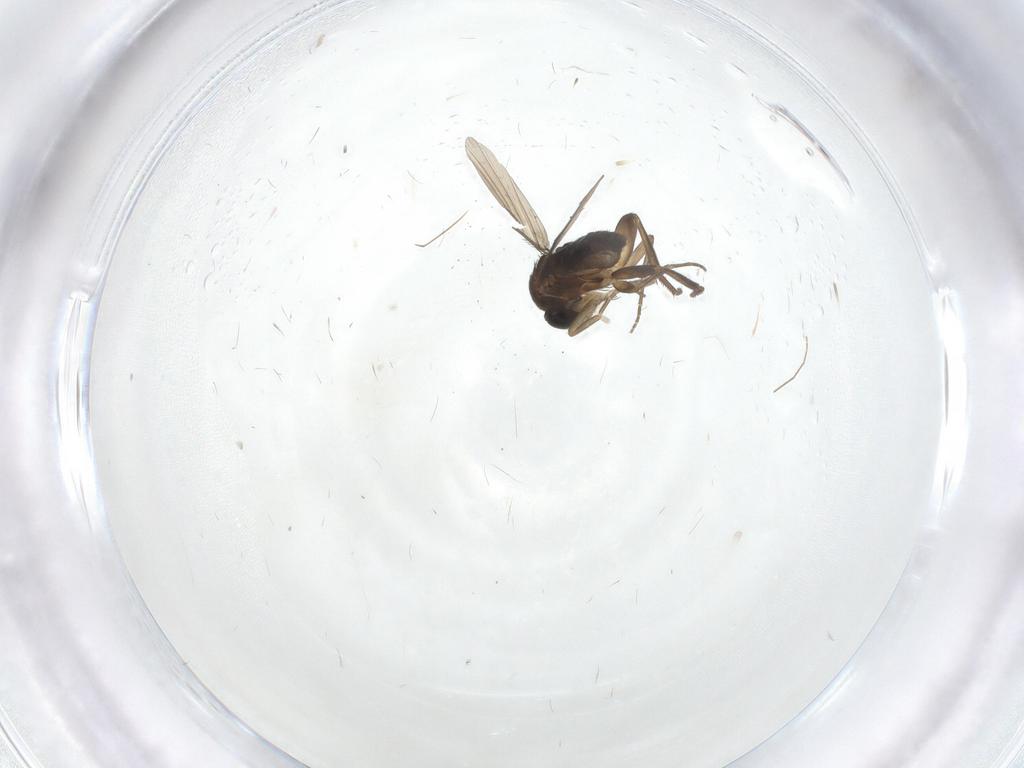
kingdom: Animalia
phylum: Arthropoda
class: Insecta
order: Diptera
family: Phoridae
